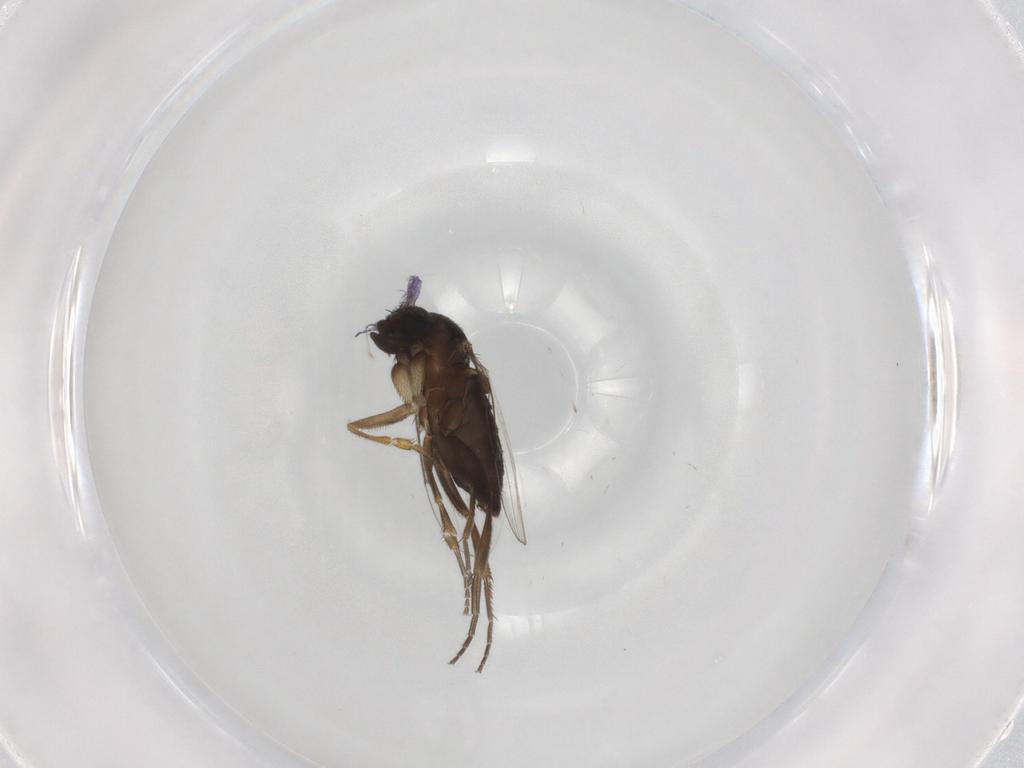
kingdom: Animalia
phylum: Arthropoda
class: Insecta
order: Diptera
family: Phoridae
